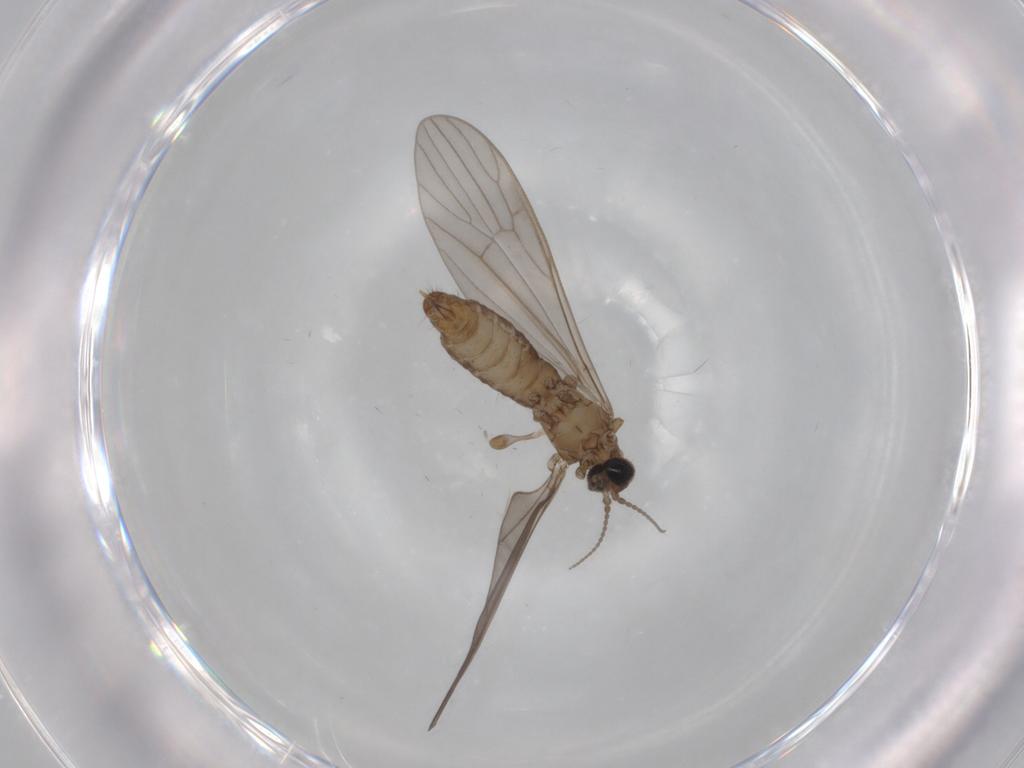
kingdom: Animalia
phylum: Arthropoda
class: Insecta
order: Diptera
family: Limoniidae
